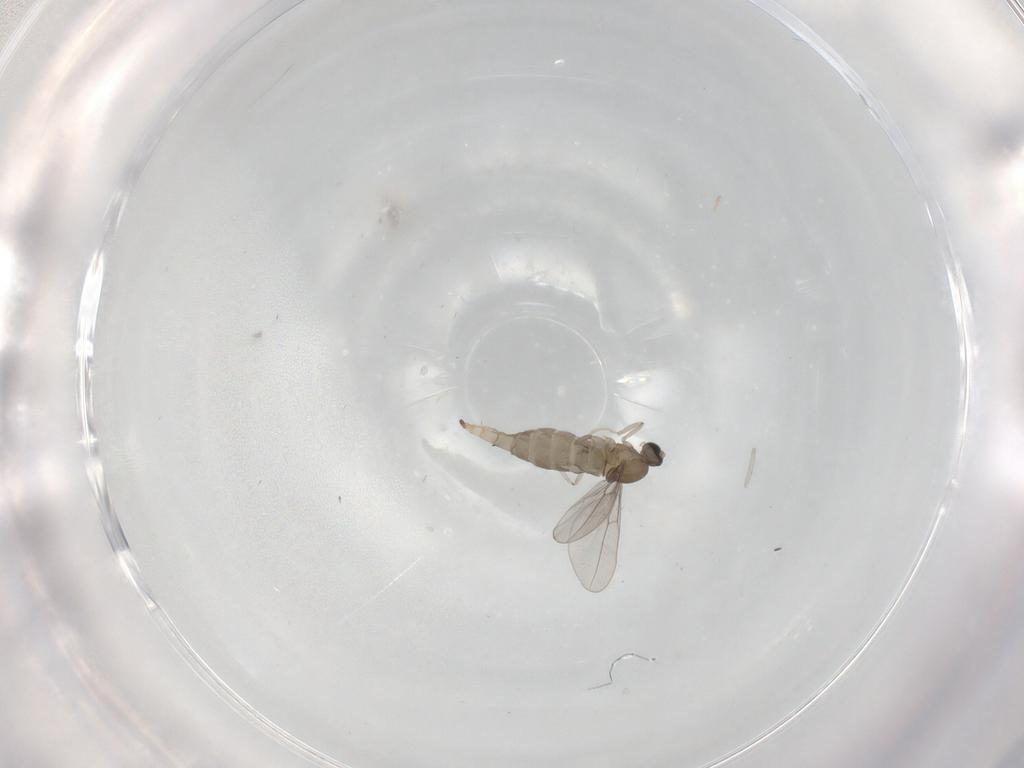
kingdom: Animalia
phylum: Arthropoda
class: Insecta
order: Diptera
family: Cecidomyiidae
